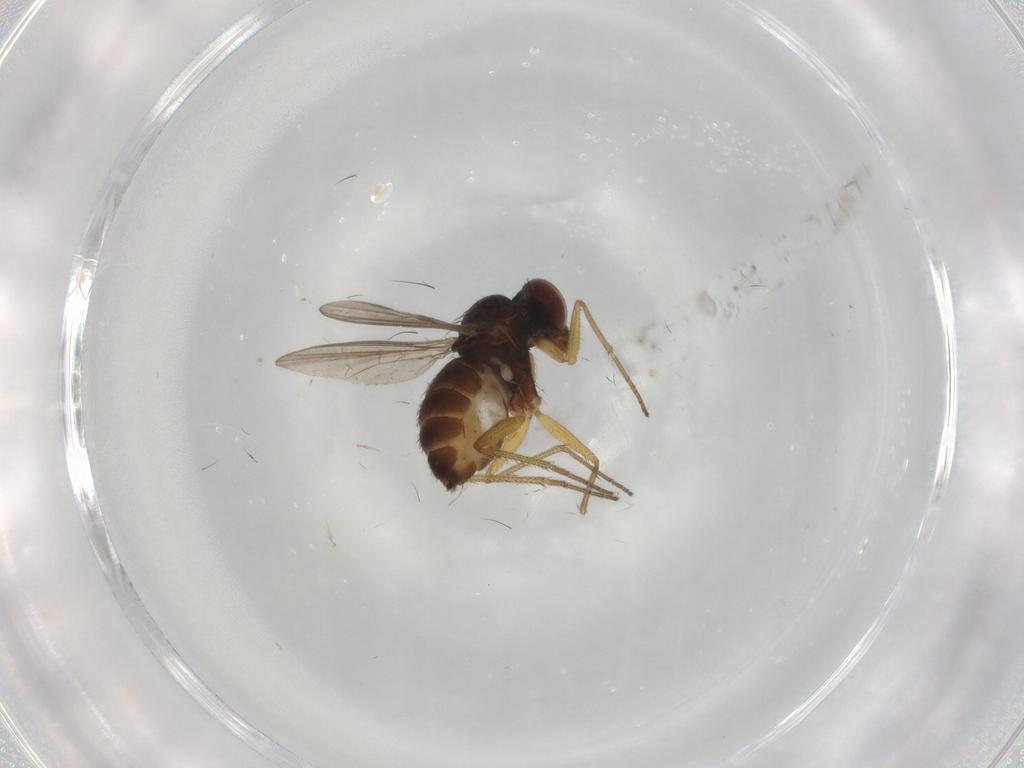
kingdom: Animalia
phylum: Arthropoda
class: Insecta
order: Diptera
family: Dolichopodidae
